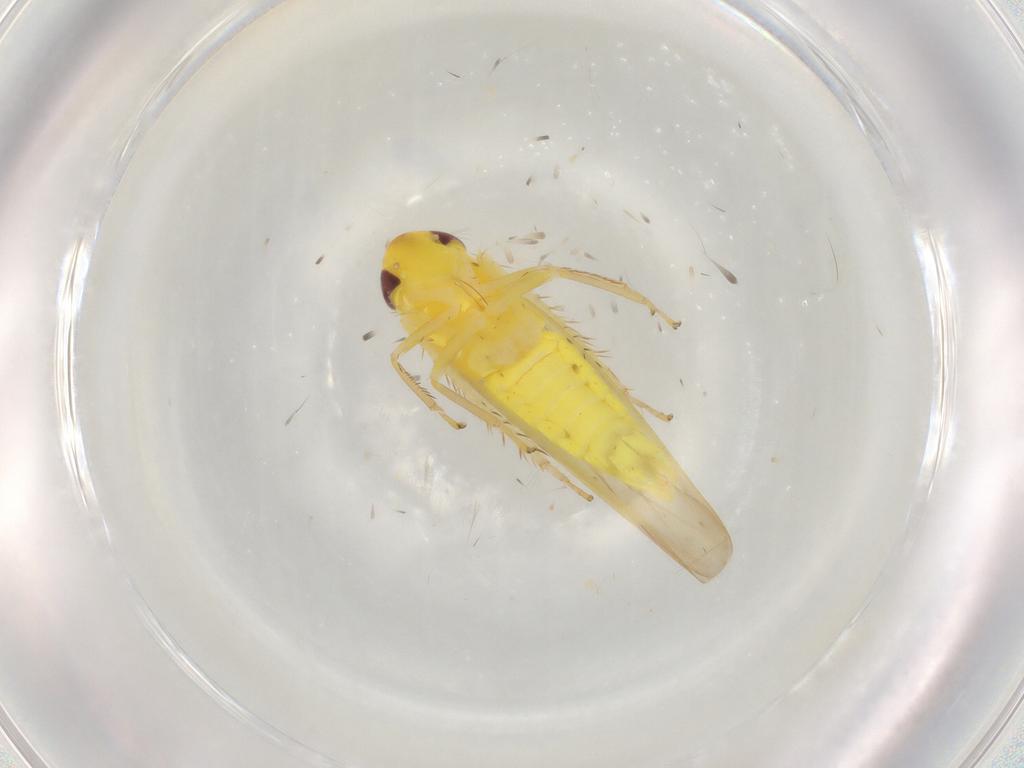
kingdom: Animalia
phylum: Arthropoda
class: Insecta
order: Hemiptera
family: Cicadellidae
